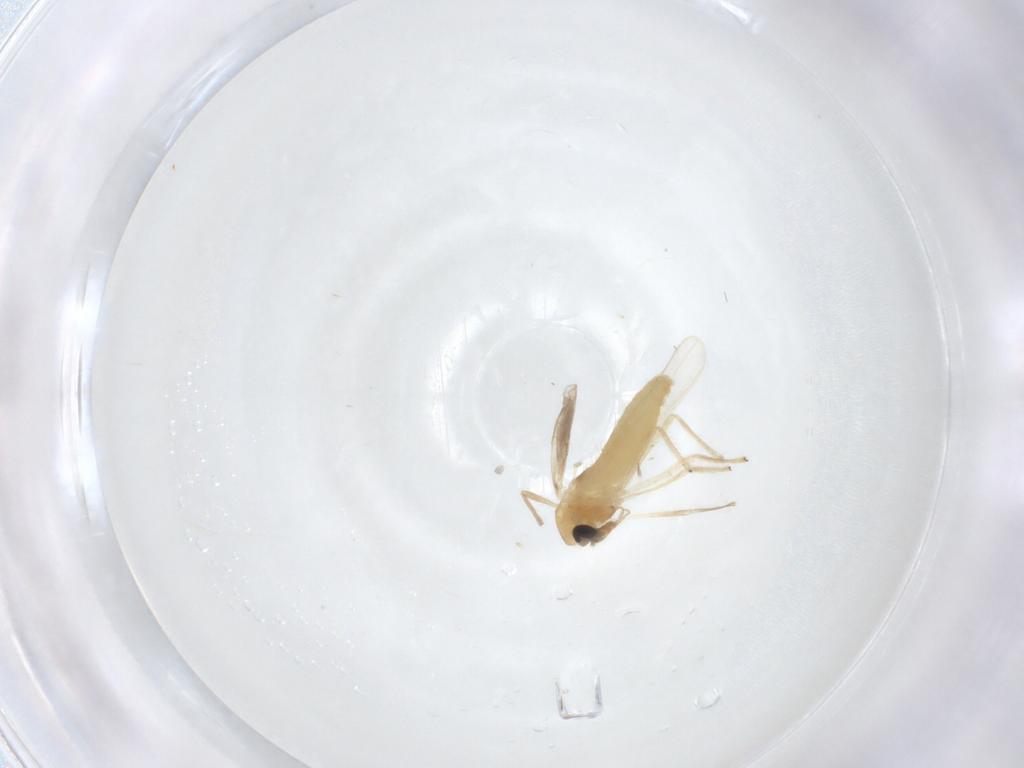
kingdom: Animalia
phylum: Arthropoda
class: Insecta
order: Diptera
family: Chironomidae
